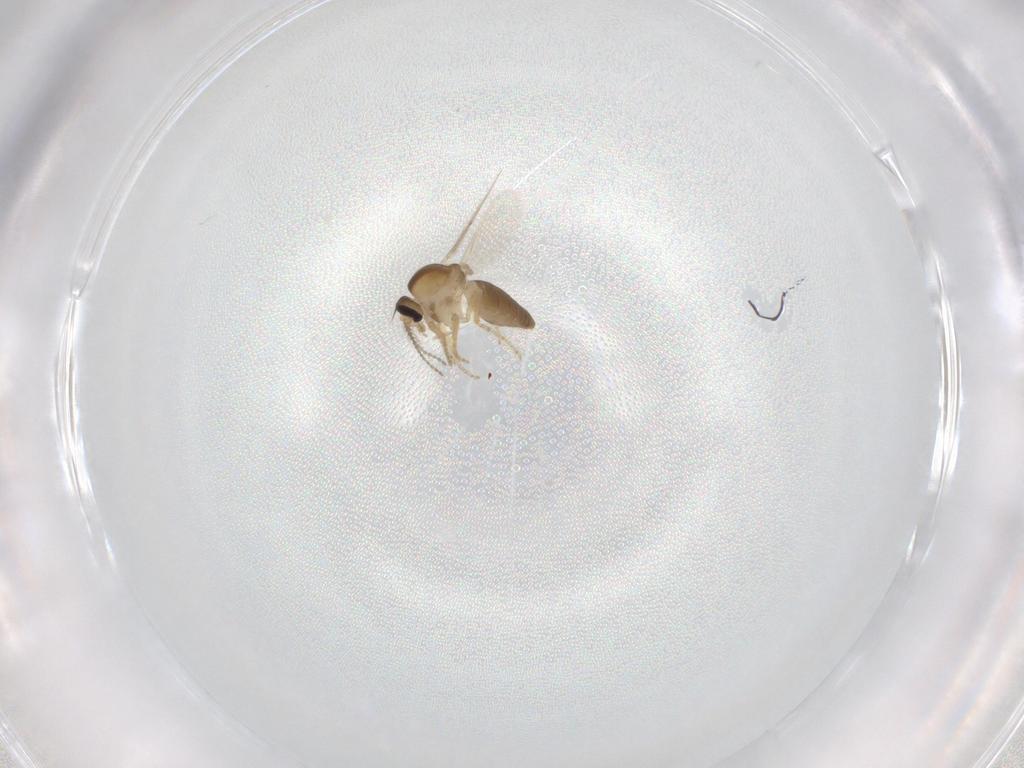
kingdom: Animalia
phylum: Arthropoda
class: Insecta
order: Diptera
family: Ceratopogonidae
